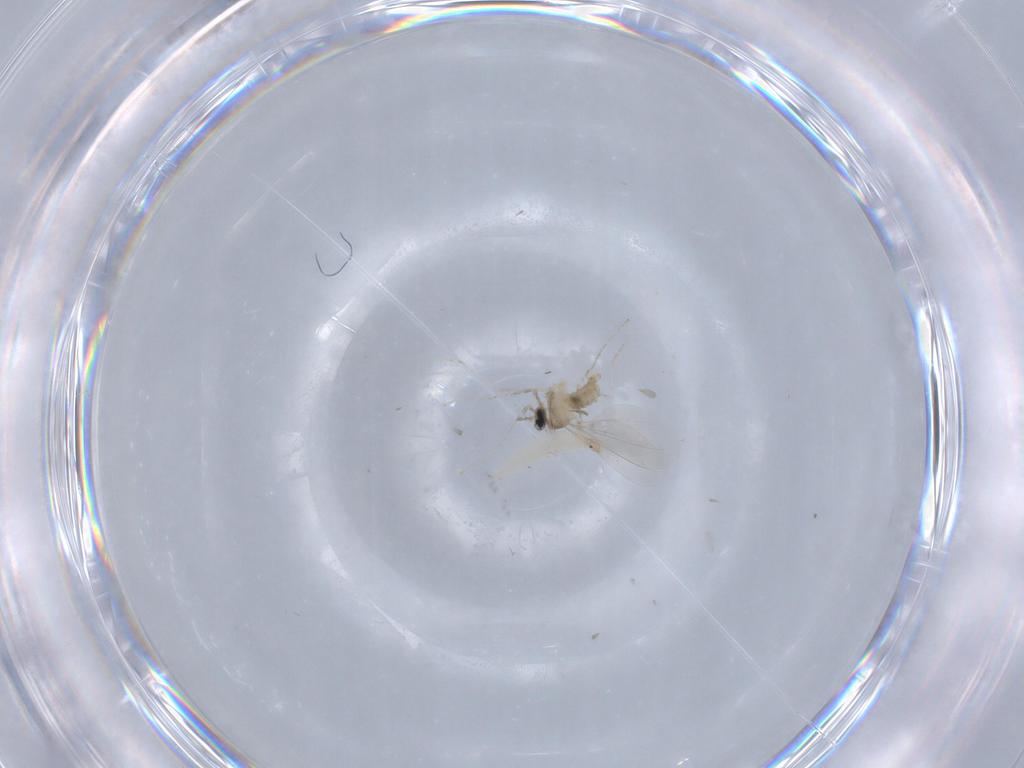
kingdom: Animalia
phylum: Arthropoda
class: Insecta
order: Diptera
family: Cecidomyiidae
